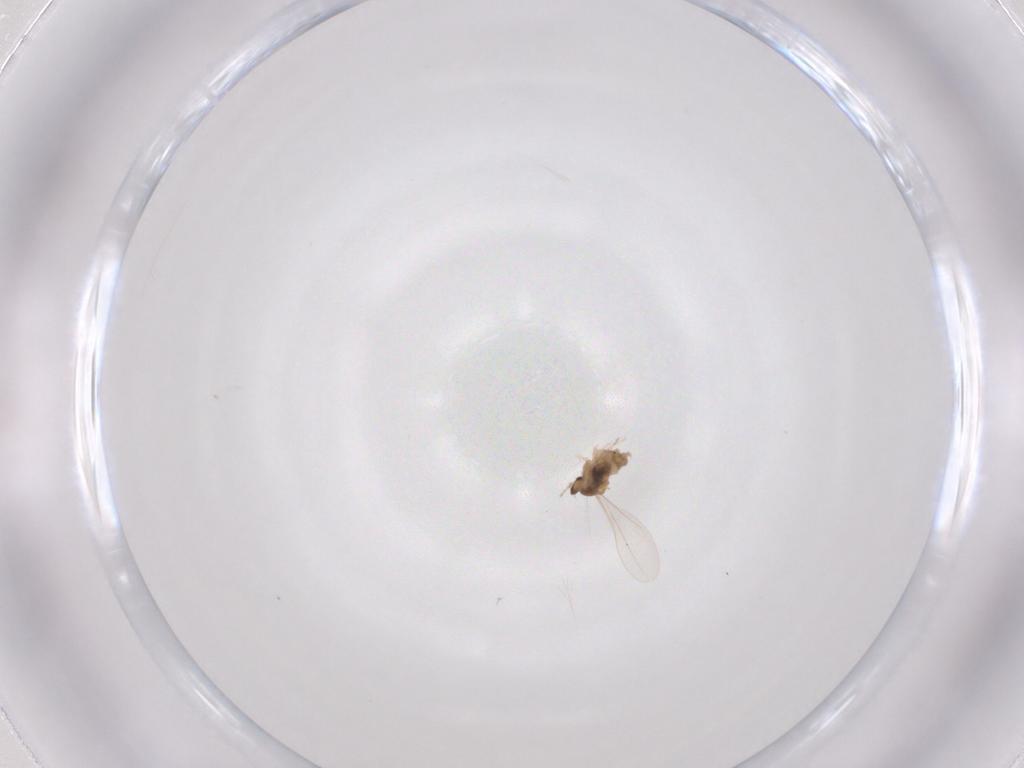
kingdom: Animalia
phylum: Arthropoda
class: Insecta
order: Diptera
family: Cecidomyiidae
